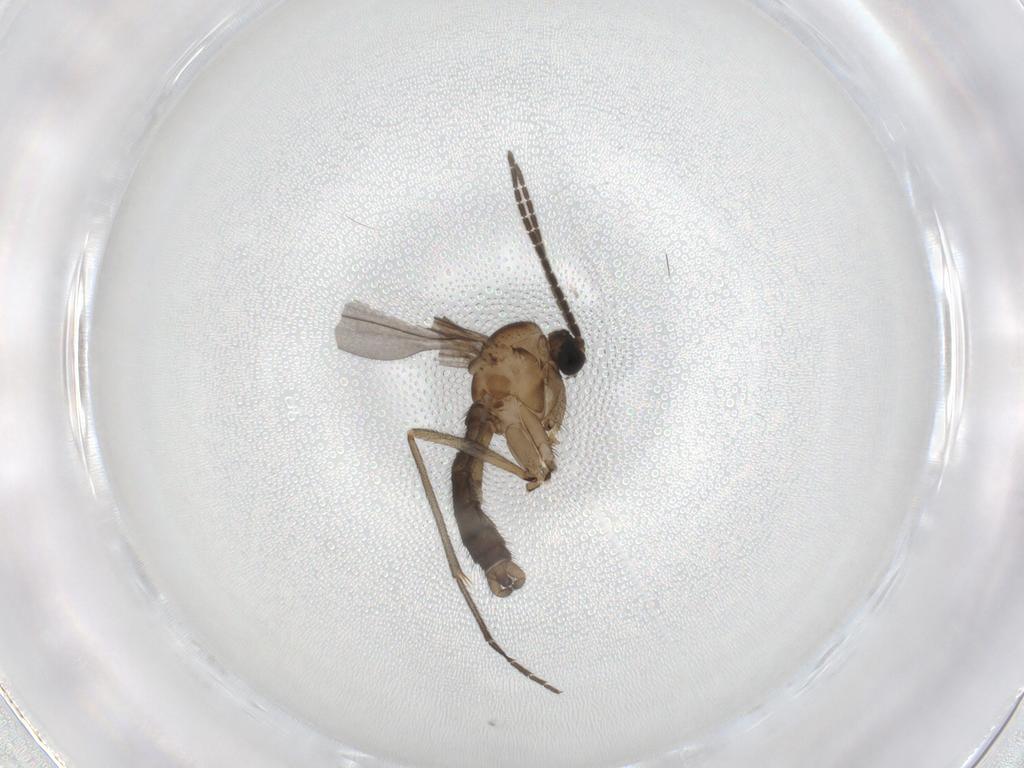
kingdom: Animalia
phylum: Arthropoda
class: Insecta
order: Diptera
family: Sciaridae
